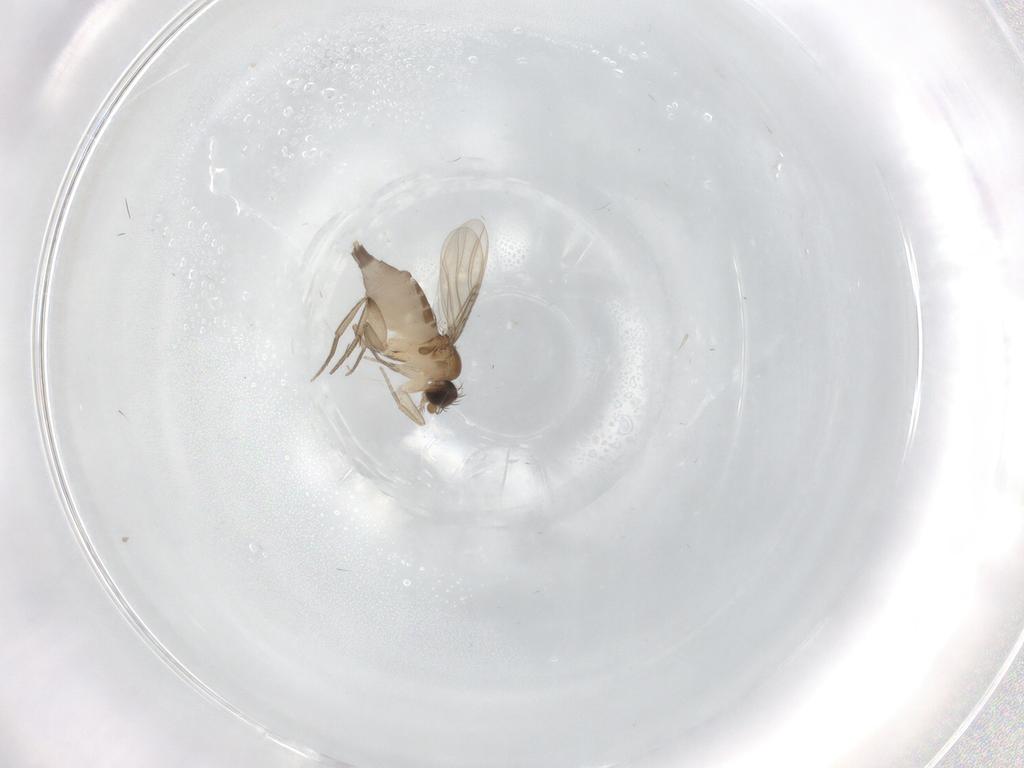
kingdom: Animalia
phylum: Arthropoda
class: Insecta
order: Diptera
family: Phoridae
